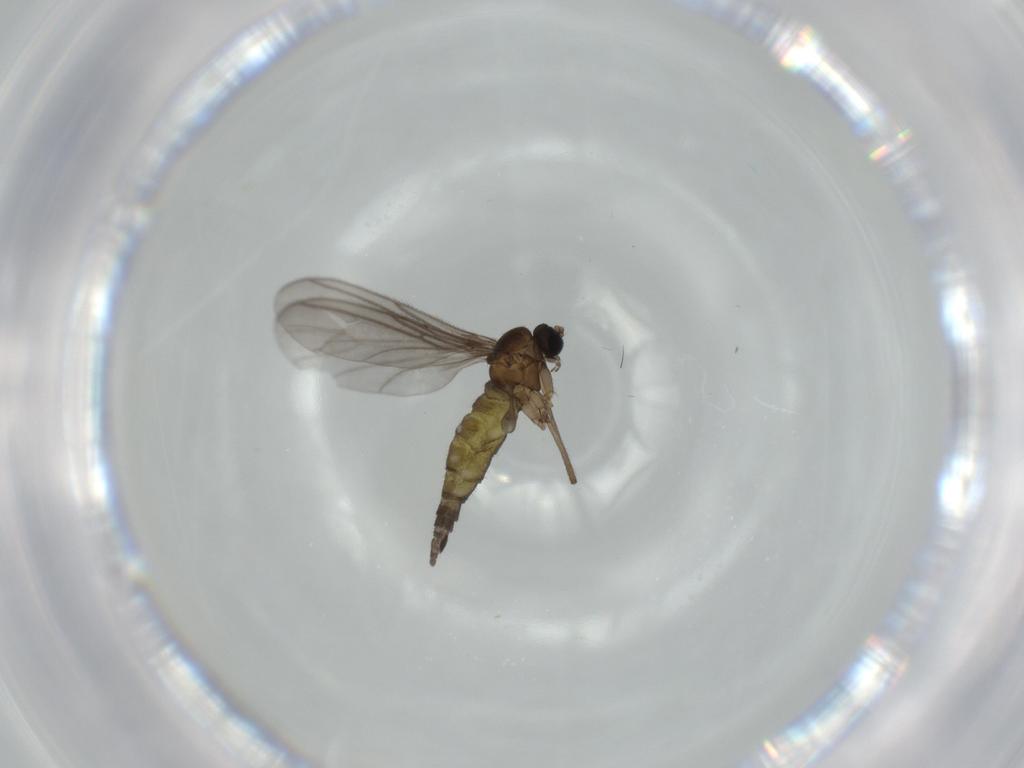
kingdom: Animalia
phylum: Arthropoda
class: Insecta
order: Diptera
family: Sciaridae
